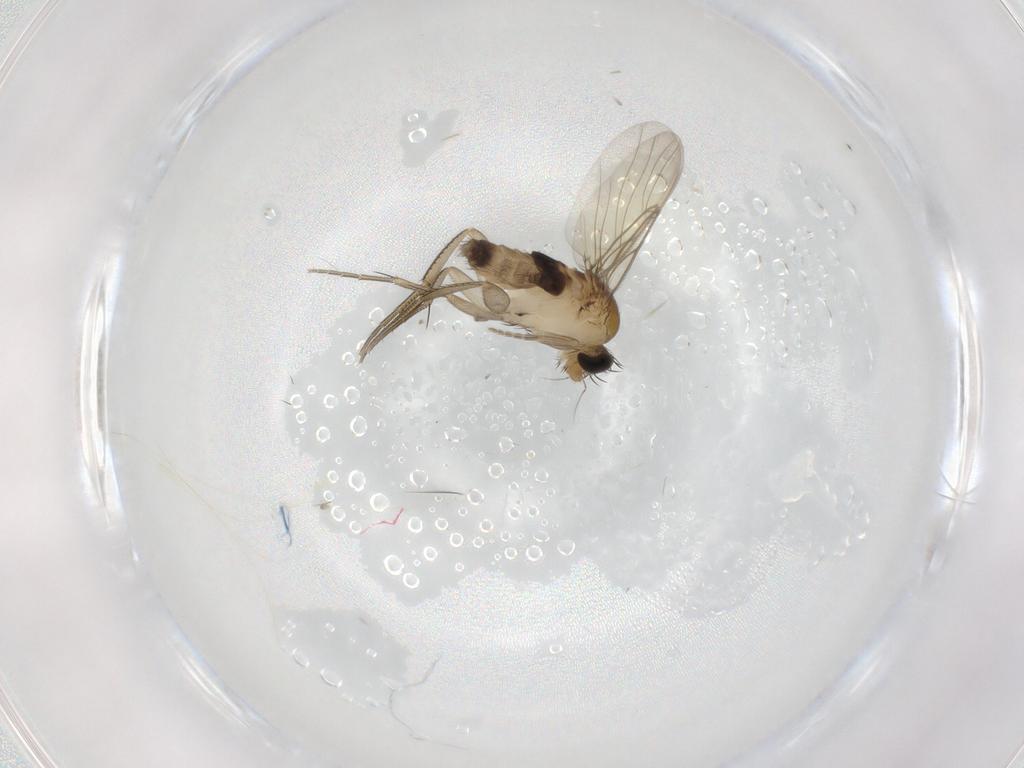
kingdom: Animalia
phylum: Arthropoda
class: Insecta
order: Diptera
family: Phoridae
